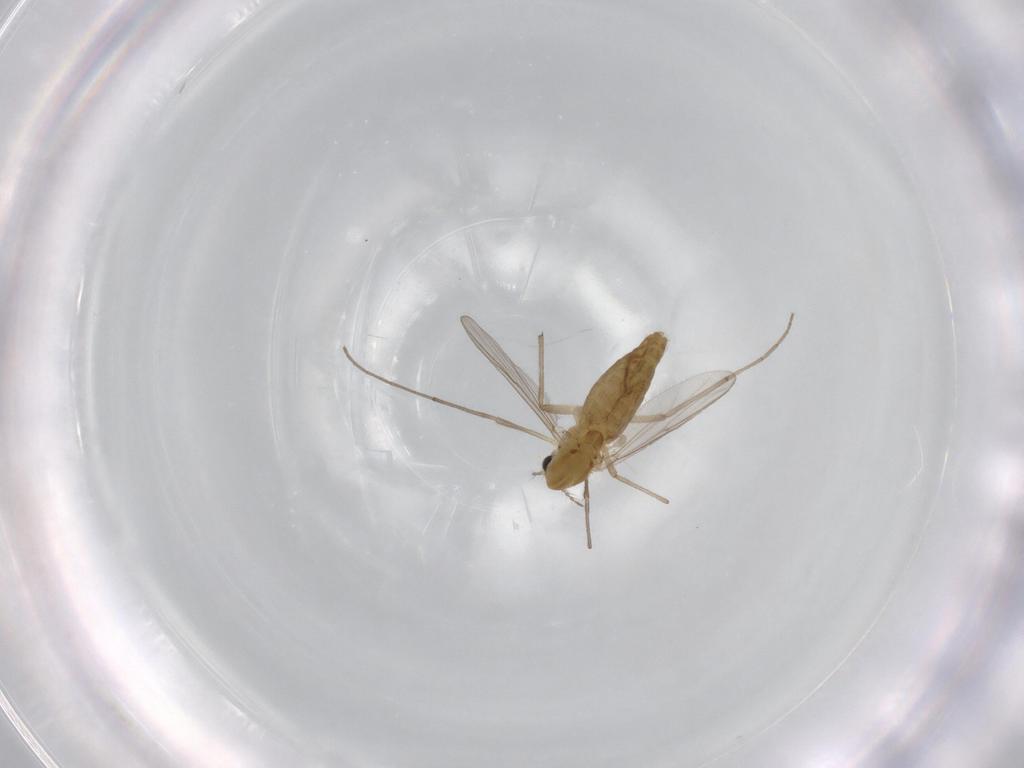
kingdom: Animalia
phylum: Arthropoda
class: Insecta
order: Diptera
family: Chironomidae
